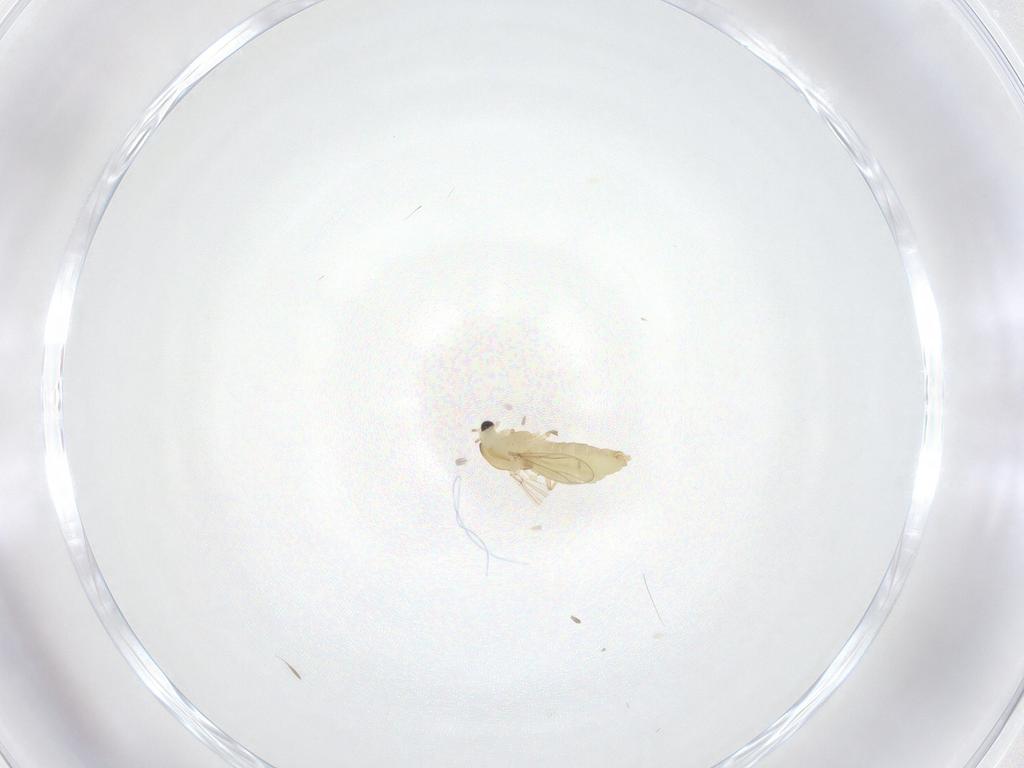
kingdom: Animalia
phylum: Arthropoda
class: Insecta
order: Diptera
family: Chironomidae
